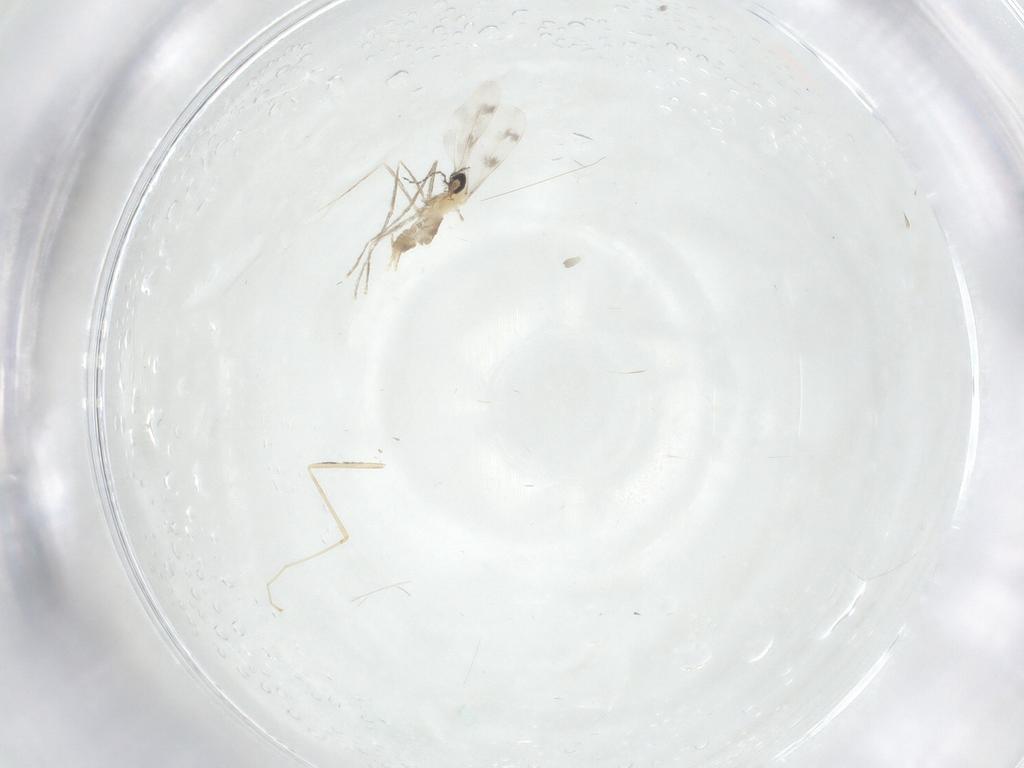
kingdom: Animalia
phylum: Arthropoda
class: Insecta
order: Diptera
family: Cecidomyiidae
